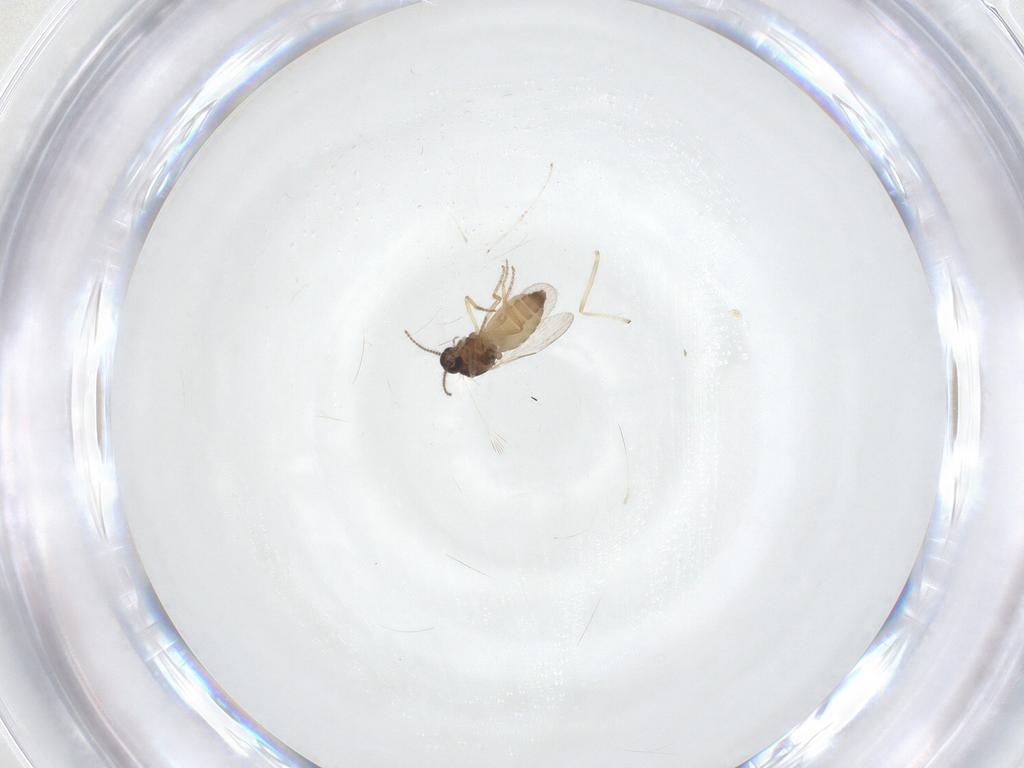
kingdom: Animalia
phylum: Arthropoda
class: Insecta
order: Diptera
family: Ceratopogonidae
